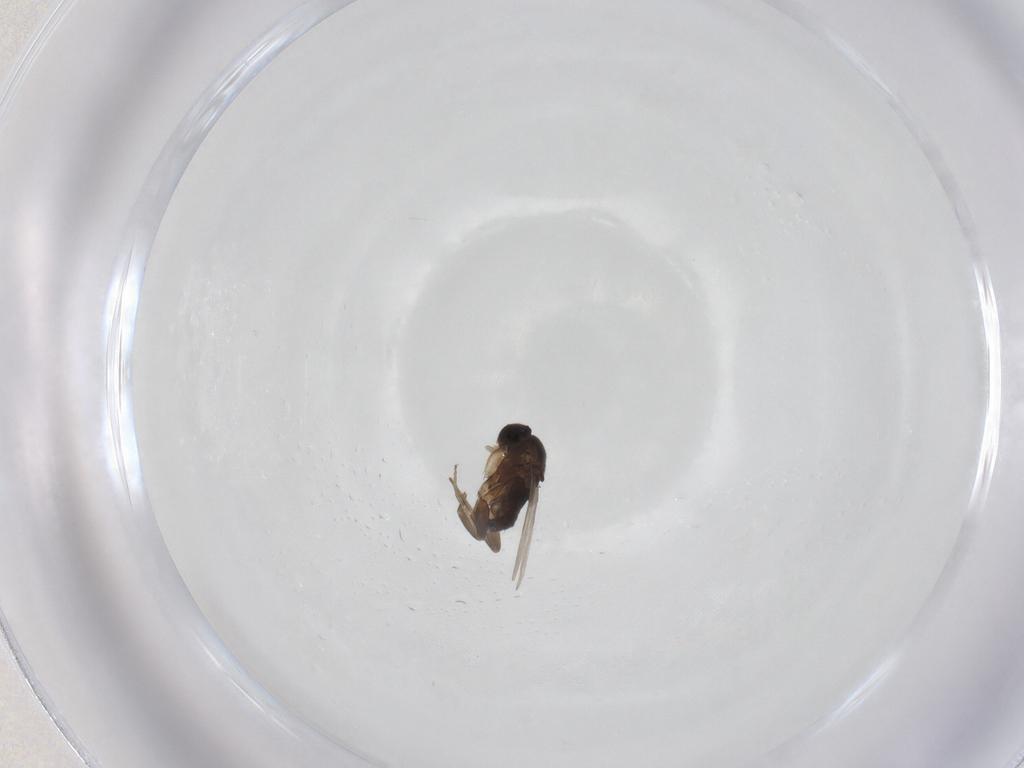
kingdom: Animalia
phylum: Arthropoda
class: Insecta
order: Diptera
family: Phoridae
